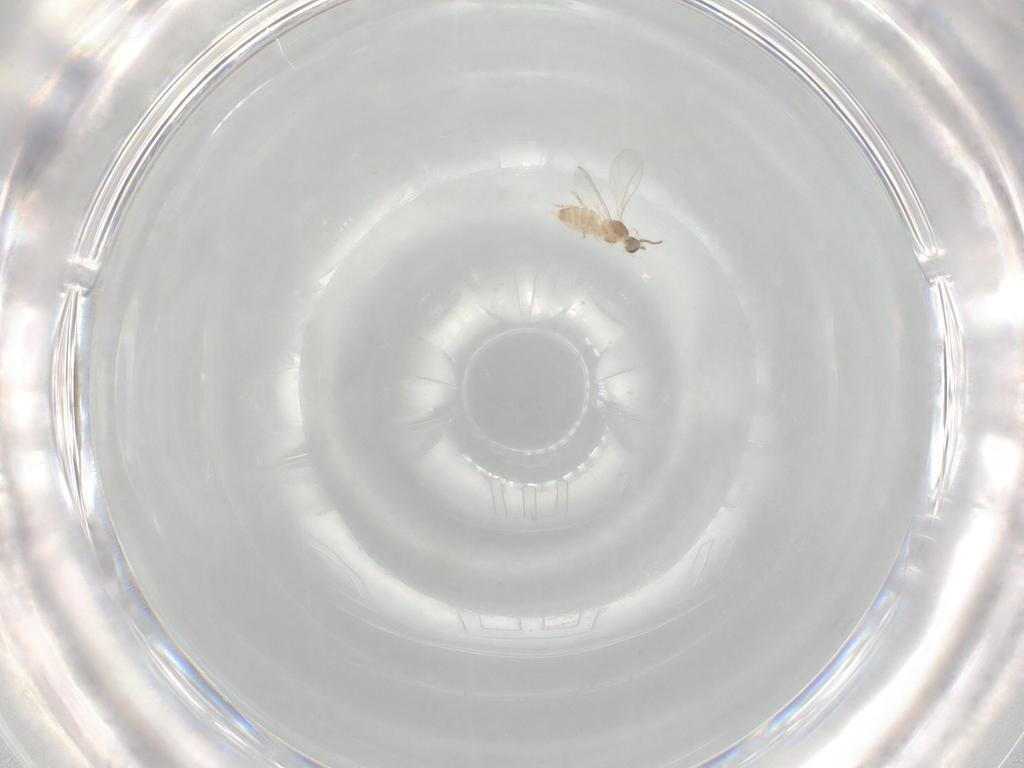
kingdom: Animalia
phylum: Arthropoda
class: Insecta
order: Diptera
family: Cecidomyiidae
